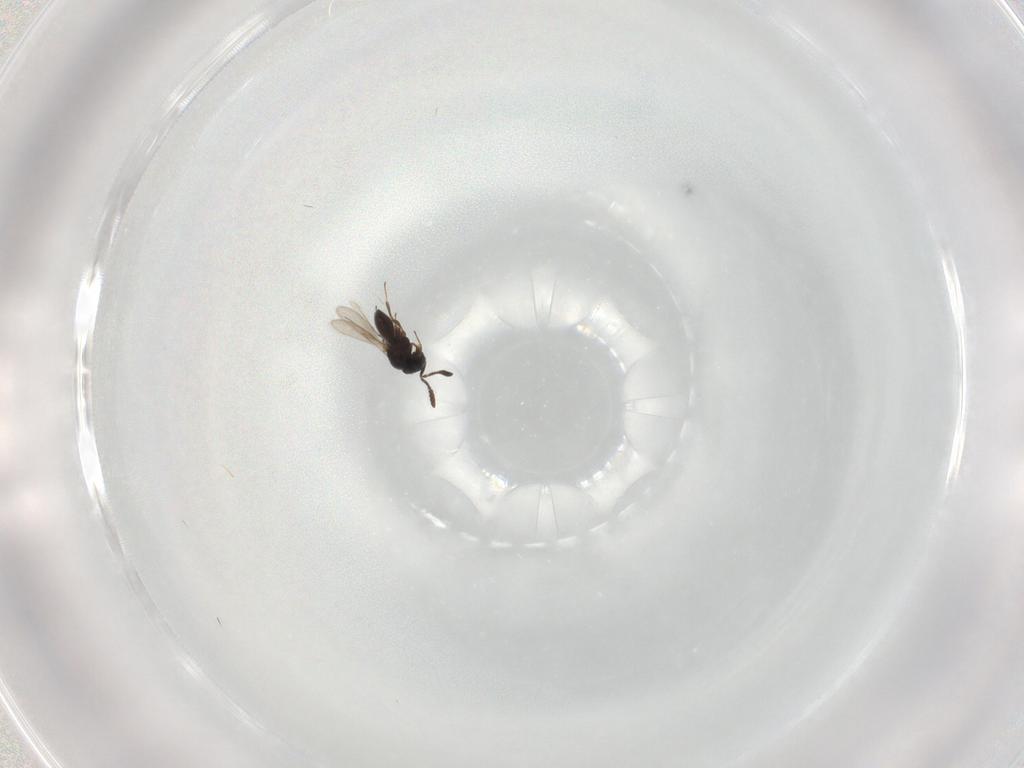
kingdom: Animalia
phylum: Arthropoda
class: Insecta
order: Hymenoptera
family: Scelionidae
